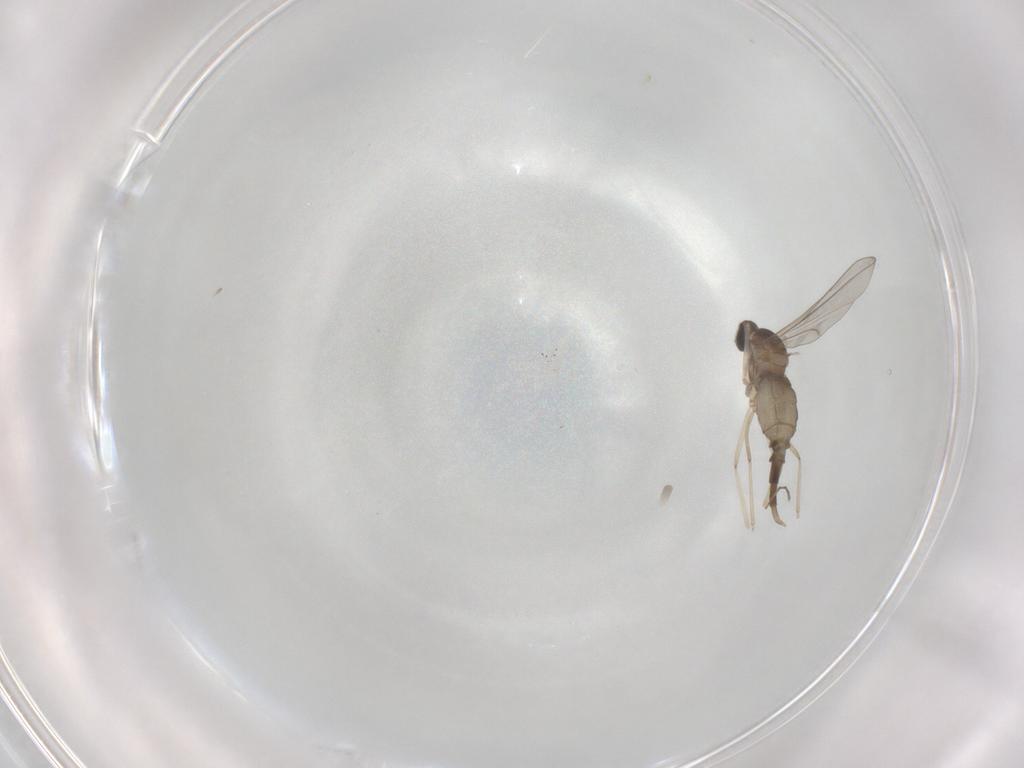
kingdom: Animalia
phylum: Arthropoda
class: Insecta
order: Diptera
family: Cecidomyiidae
